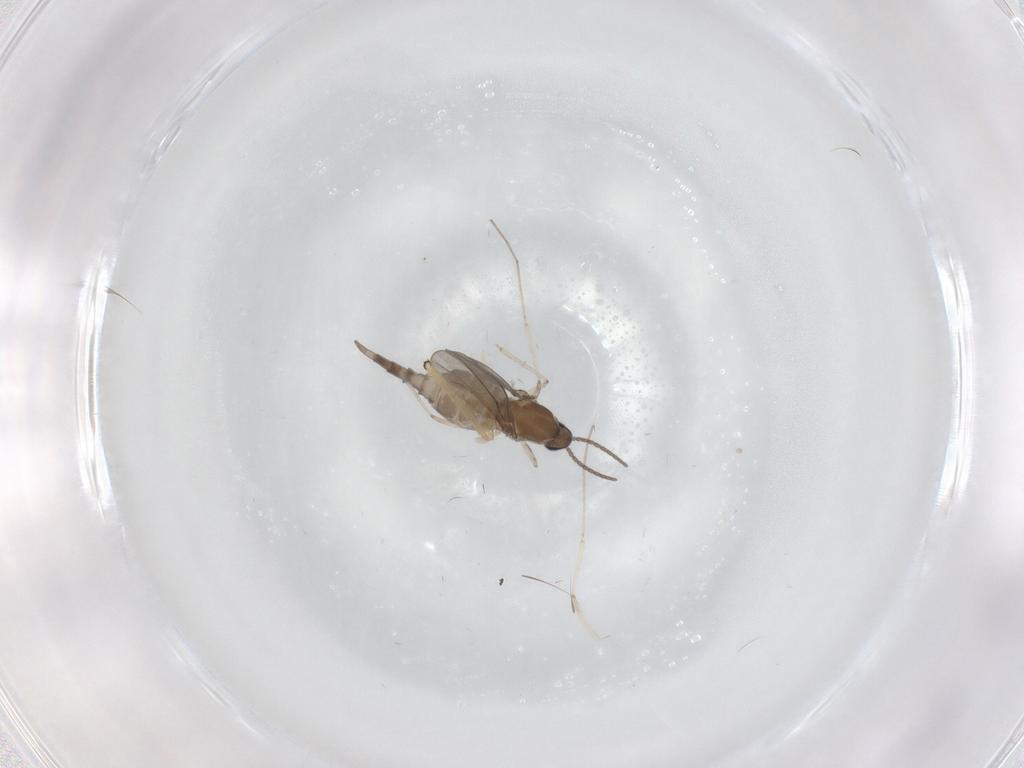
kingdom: Animalia
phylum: Arthropoda
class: Insecta
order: Diptera
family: Cecidomyiidae
